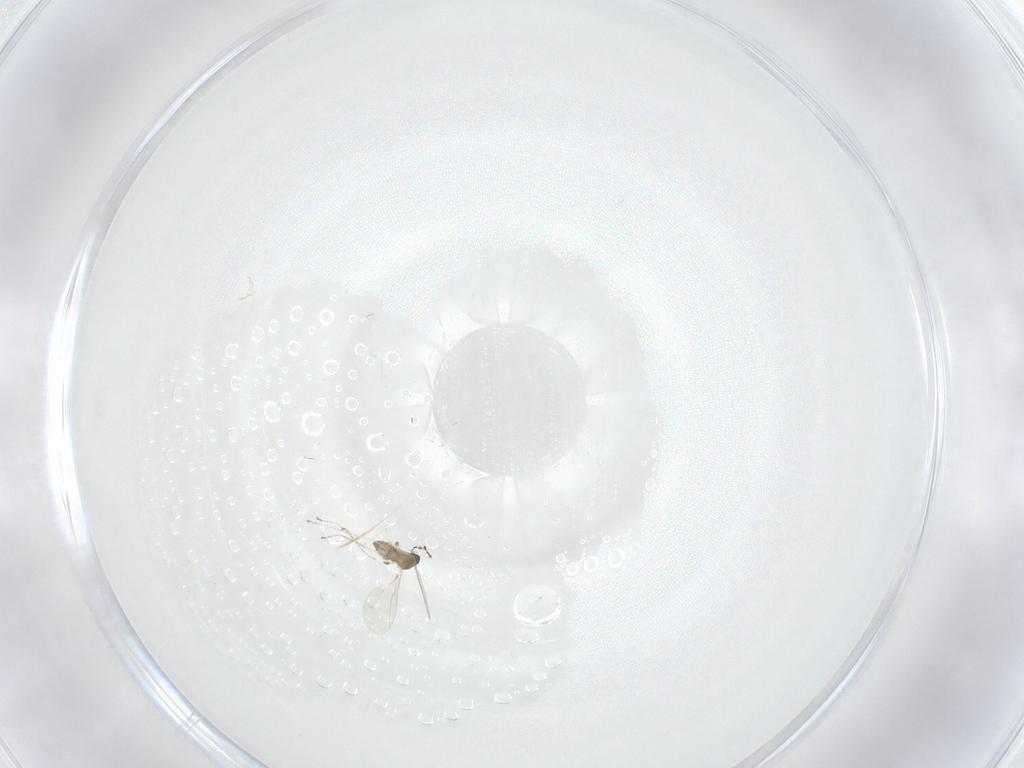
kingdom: Animalia
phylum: Arthropoda
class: Insecta
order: Diptera
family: Cecidomyiidae
